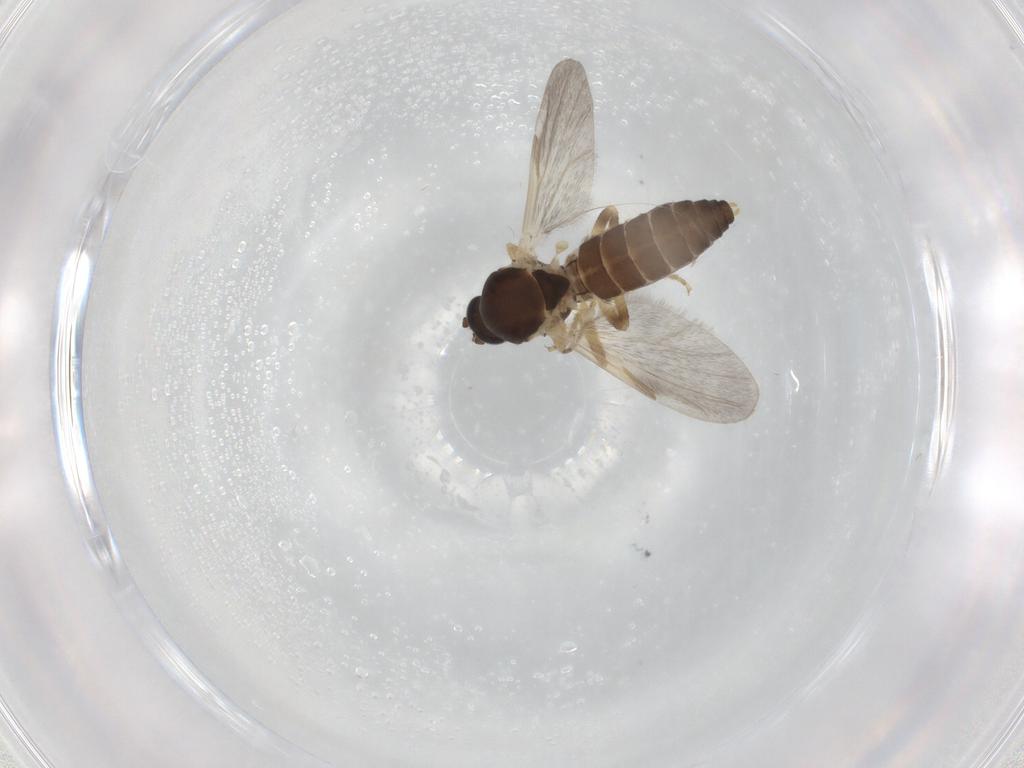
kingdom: Animalia
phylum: Arthropoda
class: Insecta
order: Diptera
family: Ceratopogonidae
